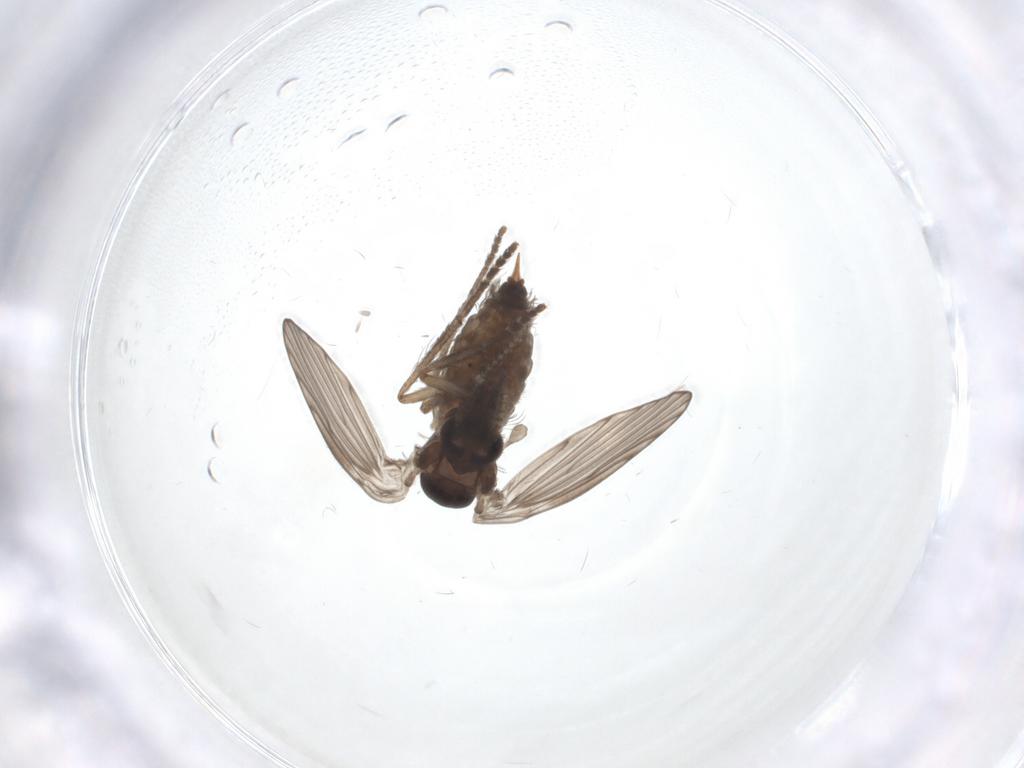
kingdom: Animalia
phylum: Arthropoda
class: Insecta
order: Diptera
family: Psychodidae
